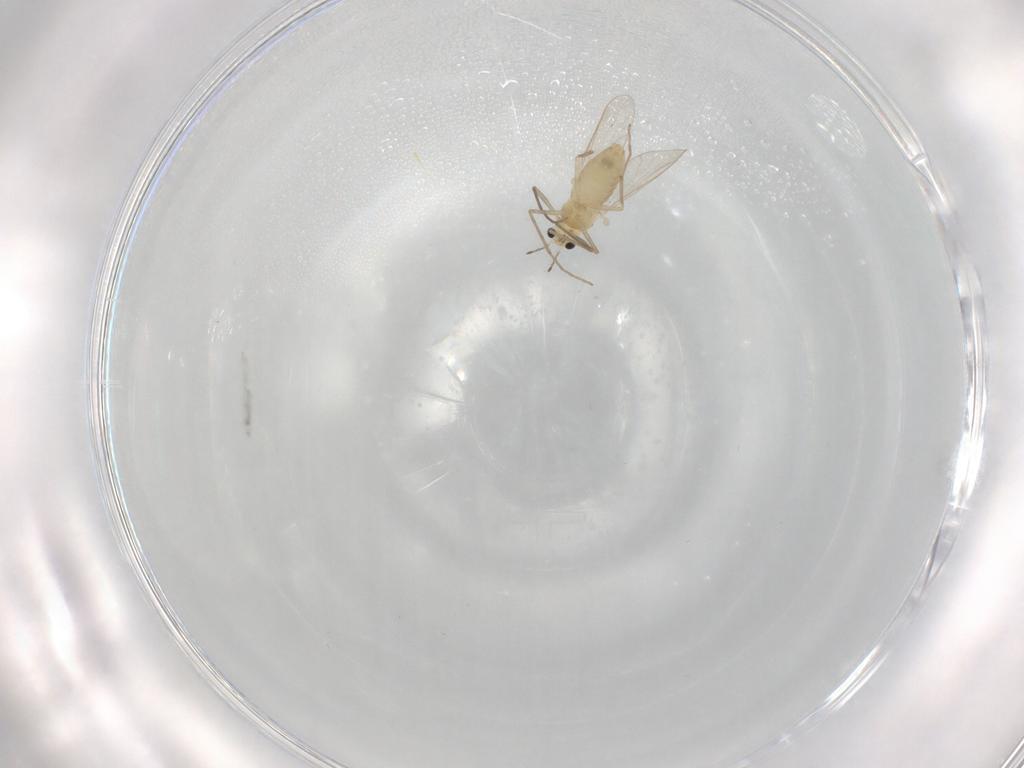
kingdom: Animalia
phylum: Arthropoda
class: Insecta
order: Diptera
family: Chironomidae
